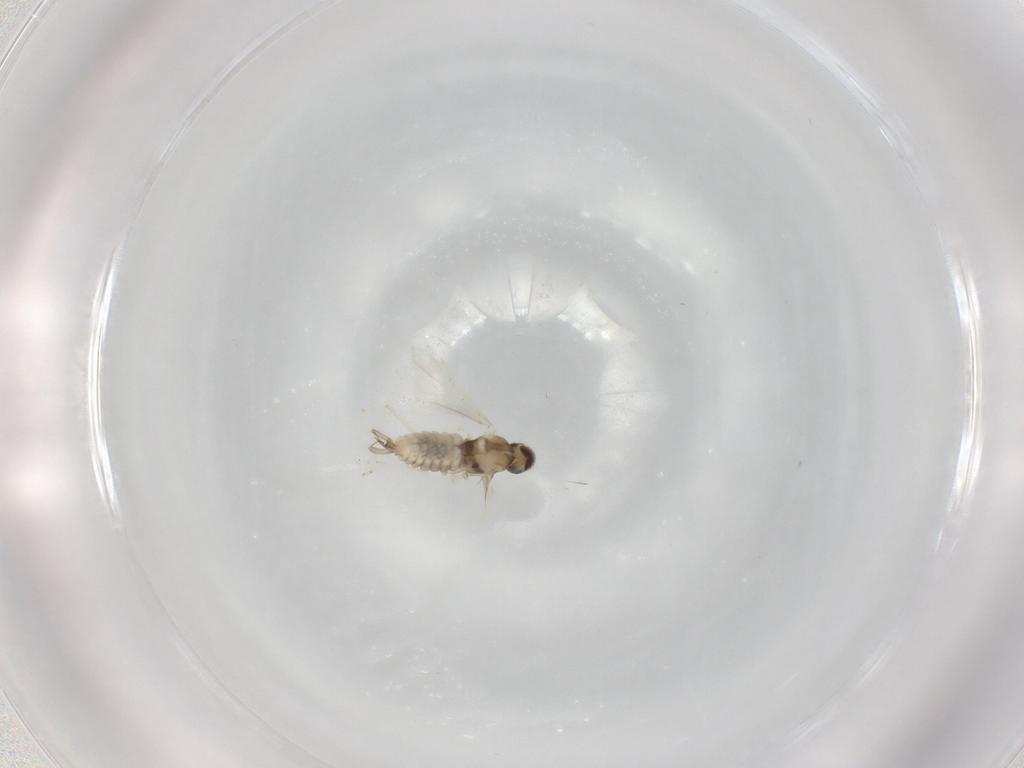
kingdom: Animalia
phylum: Arthropoda
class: Insecta
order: Diptera
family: Cecidomyiidae
